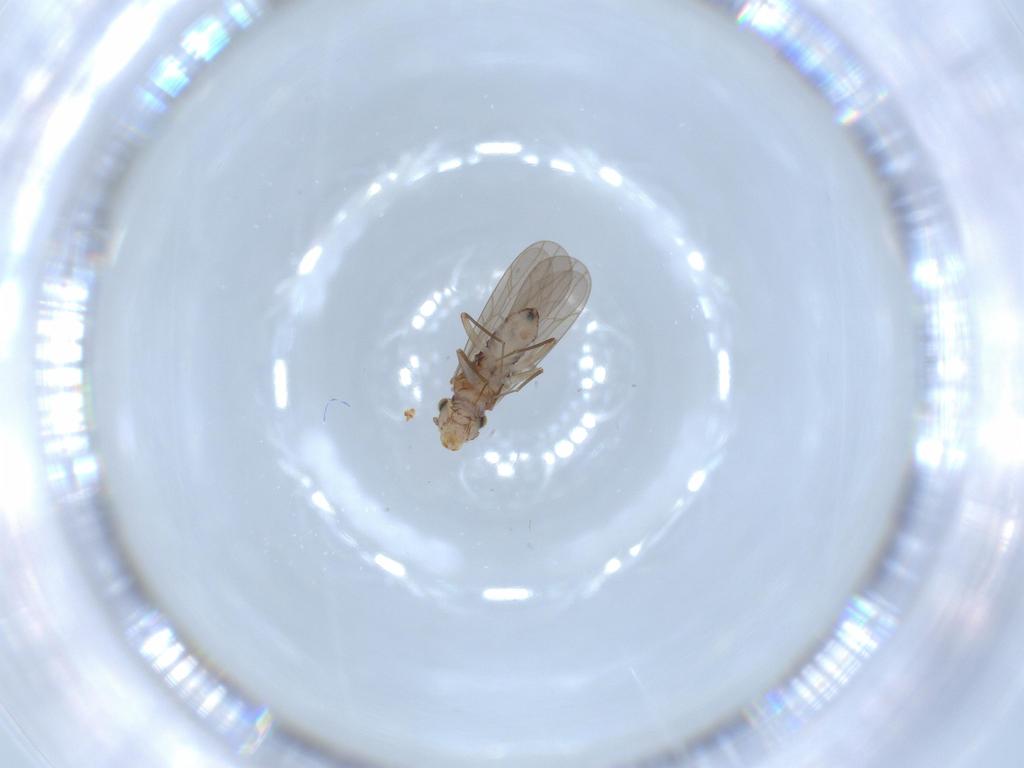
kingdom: Animalia
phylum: Arthropoda
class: Insecta
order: Psocodea
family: Lepidopsocidae
